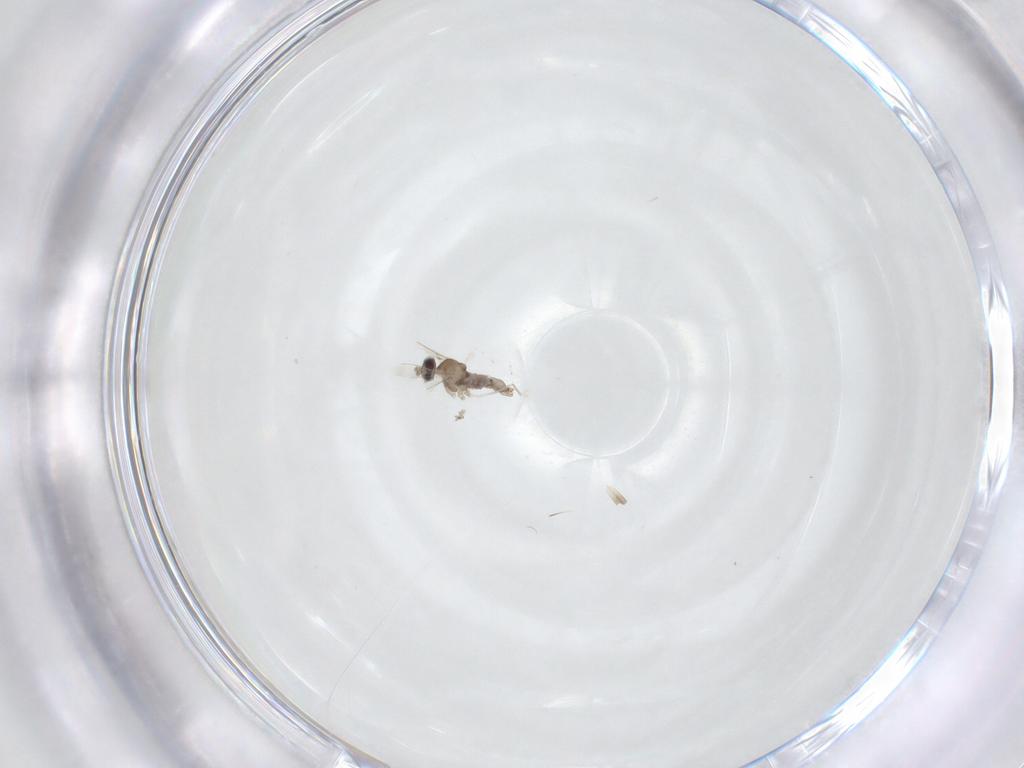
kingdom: Animalia
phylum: Arthropoda
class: Insecta
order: Diptera
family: Cecidomyiidae
